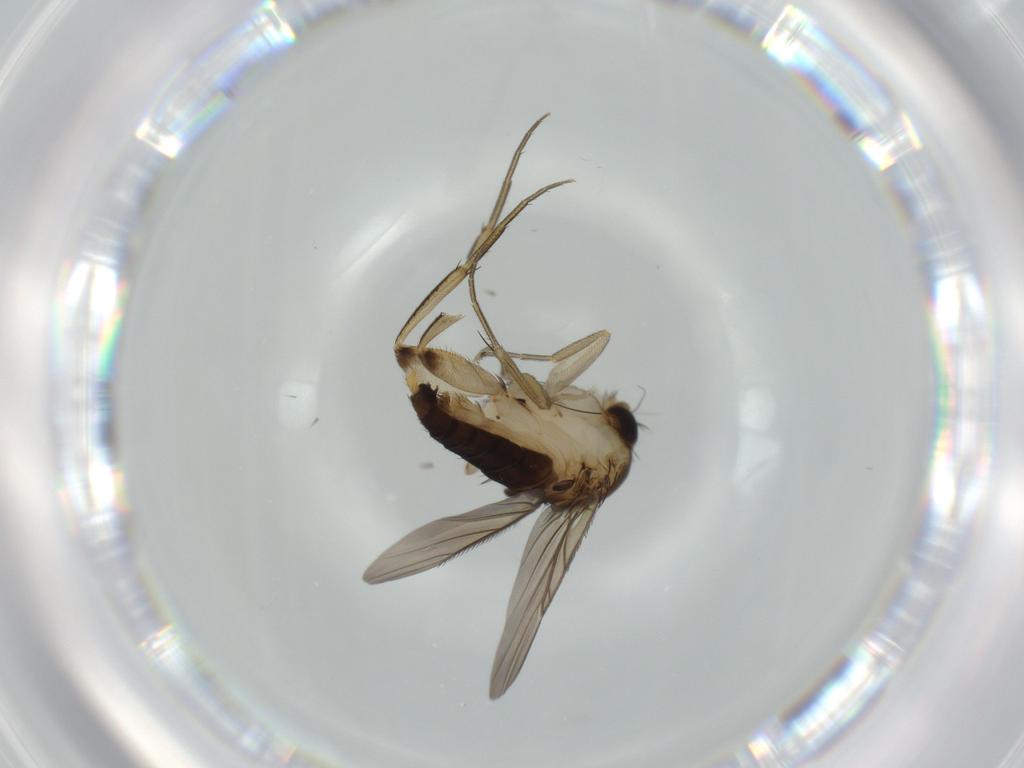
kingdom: Animalia
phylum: Arthropoda
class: Insecta
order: Diptera
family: Phoridae
